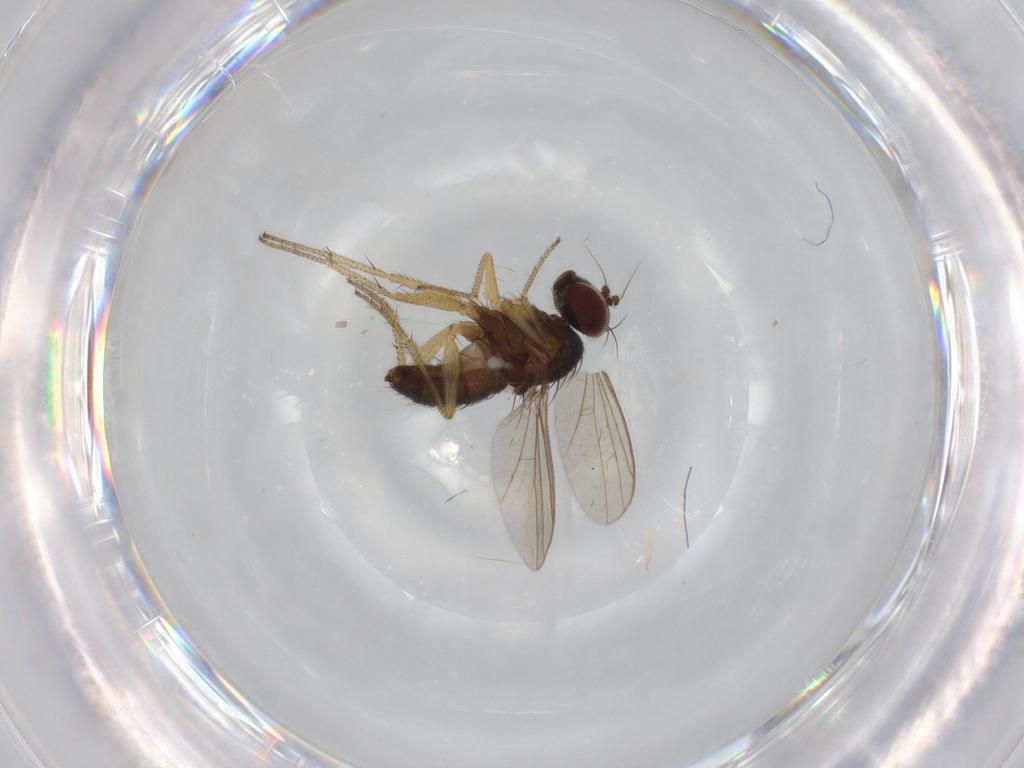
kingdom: Animalia
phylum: Arthropoda
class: Insecta
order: Diptera
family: Dolichopodidae
